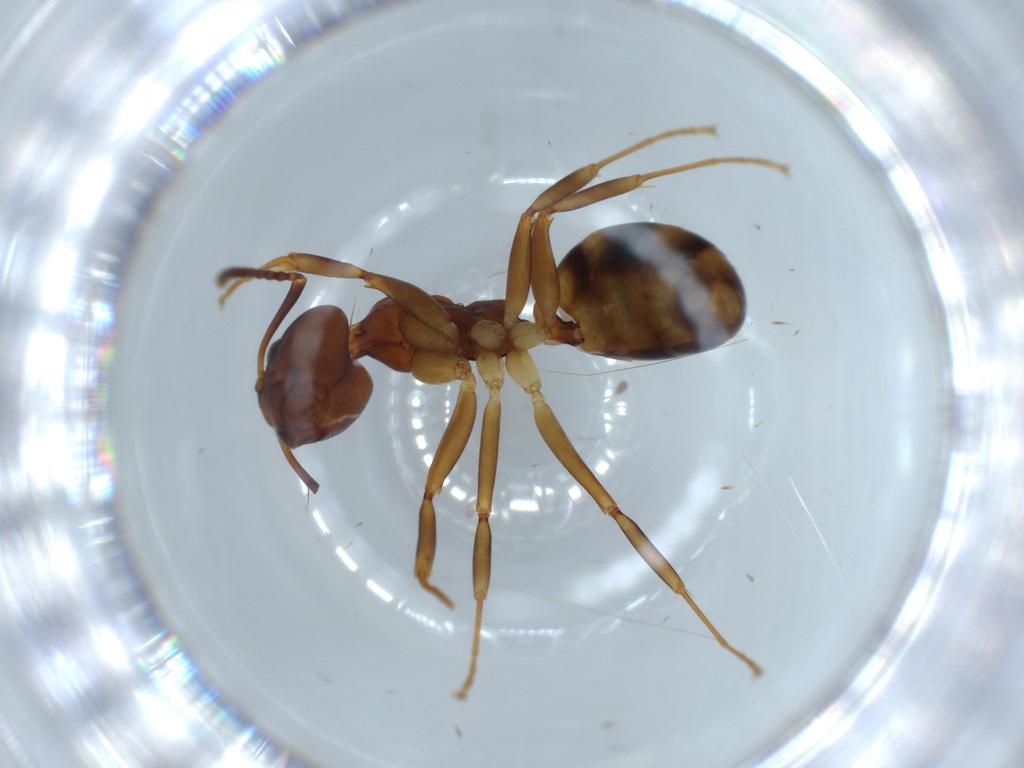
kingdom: Animalia
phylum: Arthropoda
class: Insecta
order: Hymenoptera
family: Formicidae
